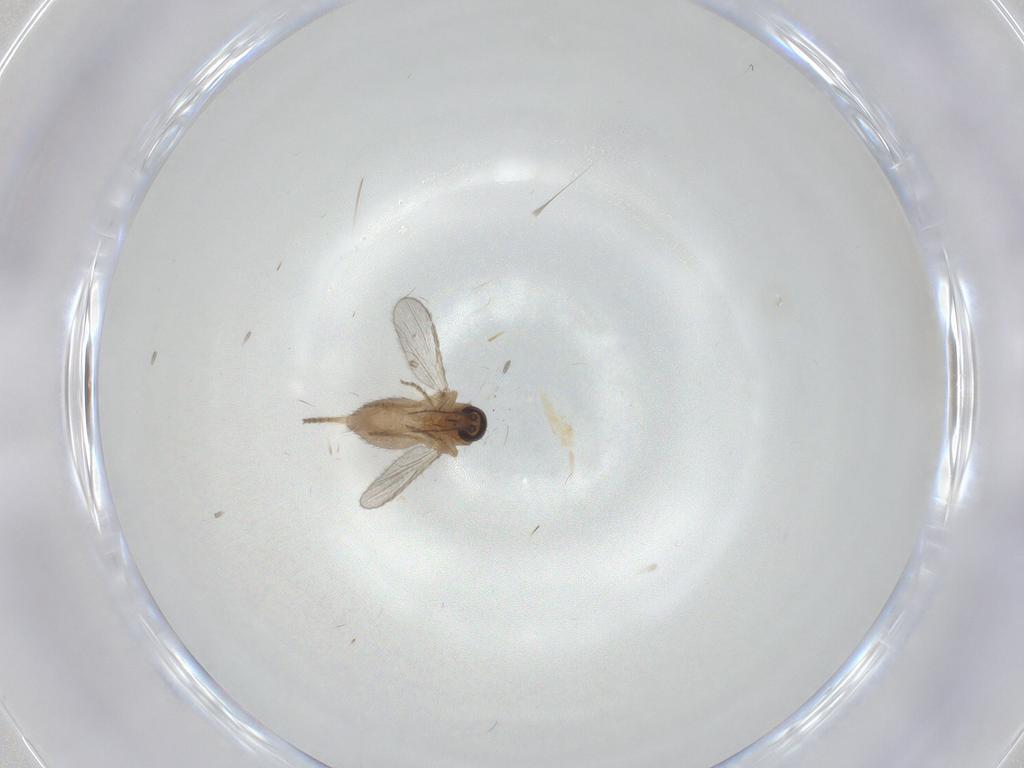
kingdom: Animalia
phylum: Arthropoda
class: Insecta
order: Diptera
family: Ceratopogonidae
